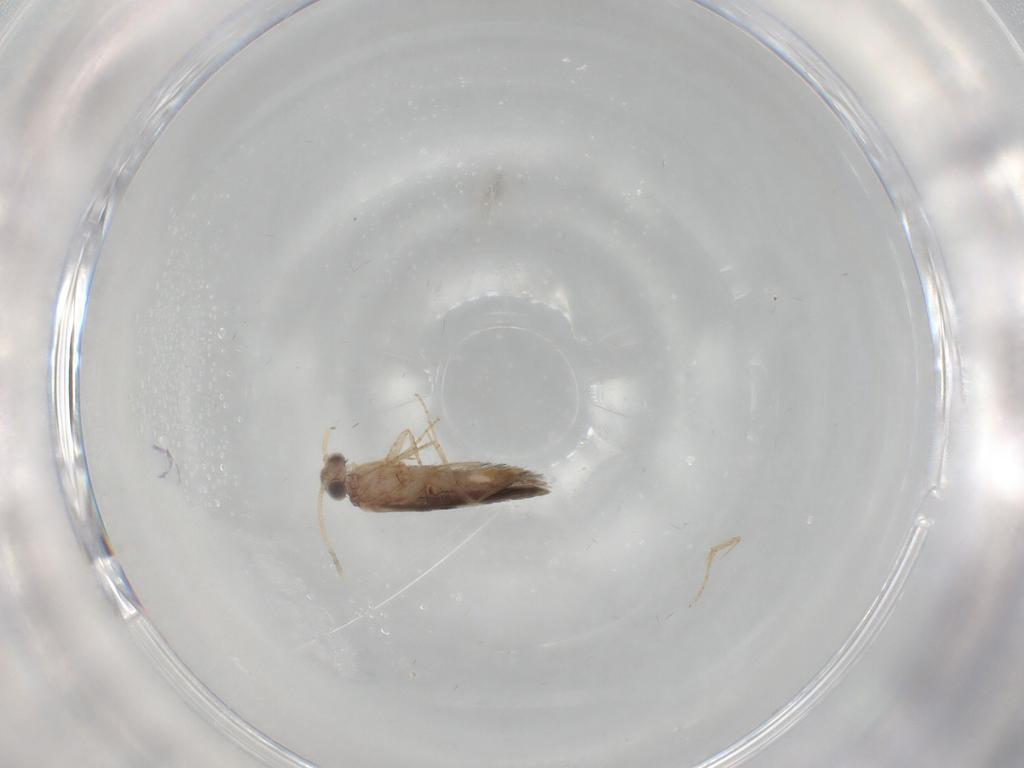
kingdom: Animalia
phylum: Arthropoda
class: Insecta
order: Trichoptera
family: Hydroptilidae
